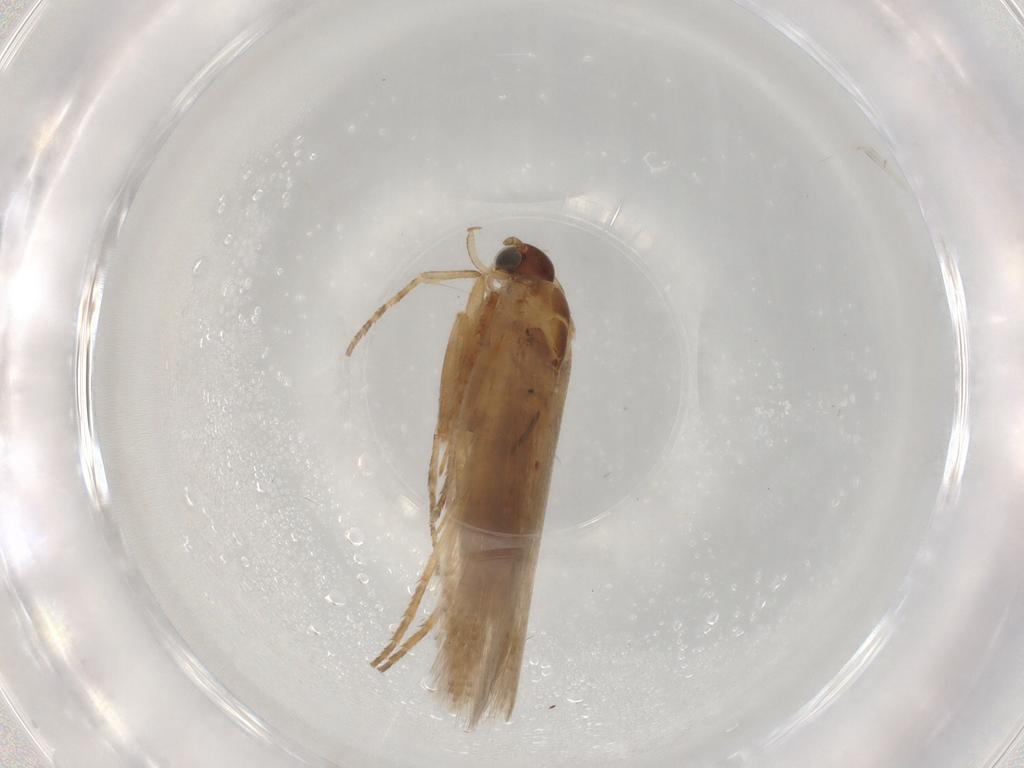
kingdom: Animalia
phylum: Arthropoda
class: Insecta
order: Lepidoptera
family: Gelechiidae
